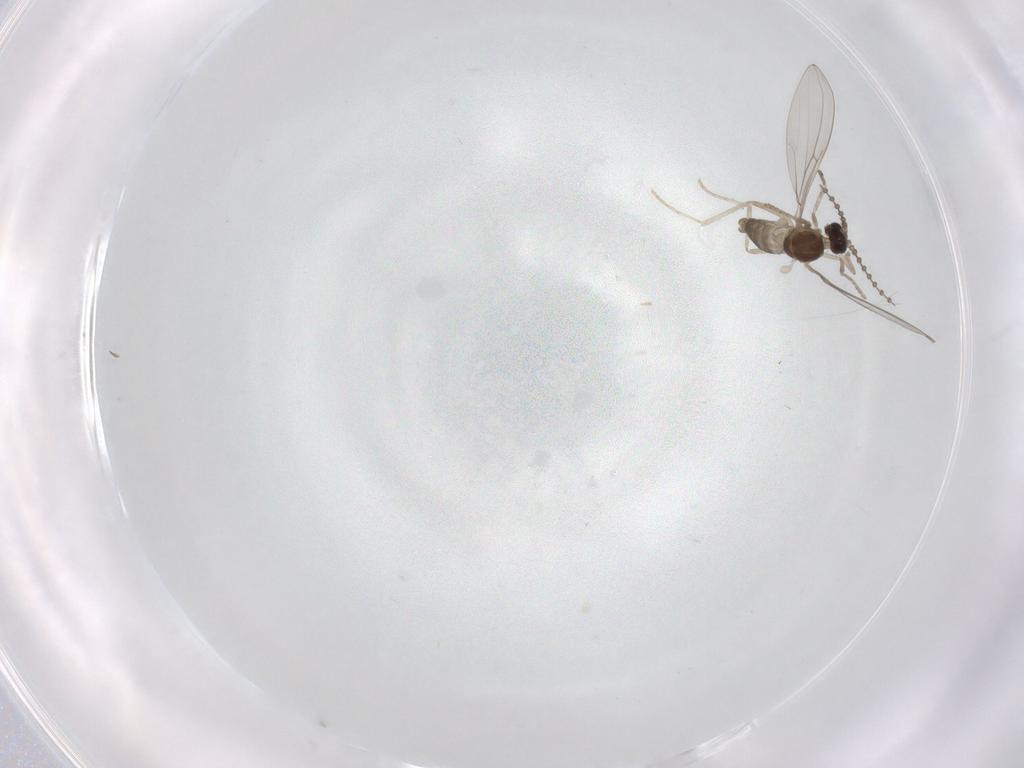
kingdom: Animalia
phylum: Arthropoda
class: Insecta
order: Diptera
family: Cecidomyiidae
